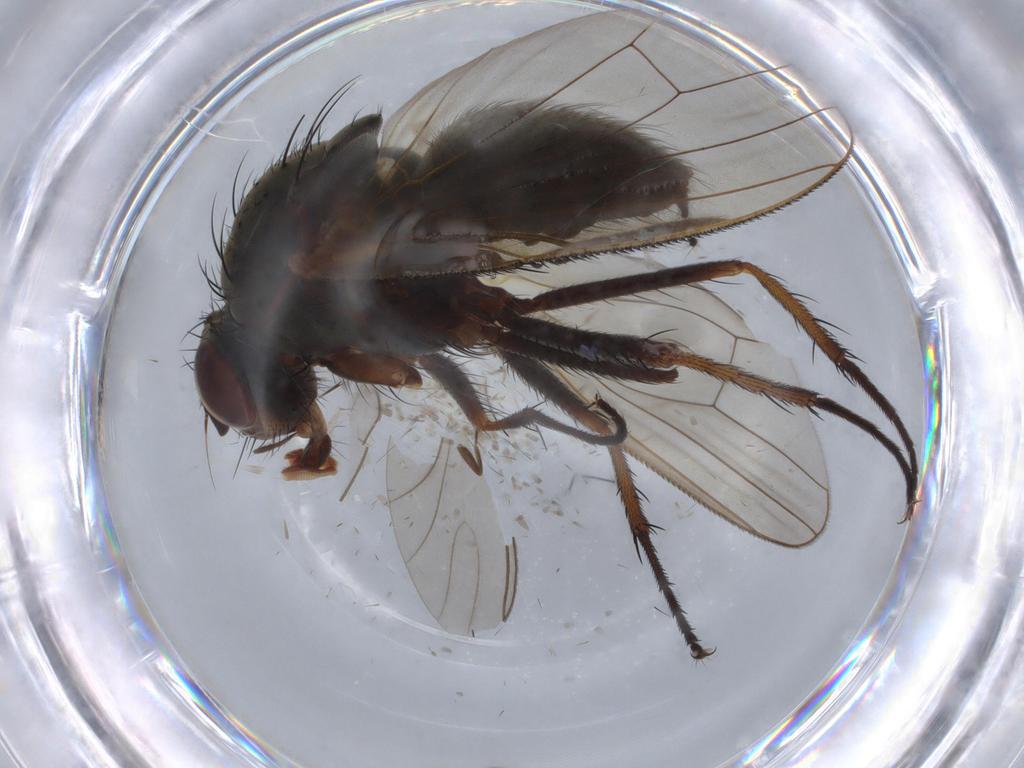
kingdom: Animalia
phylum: Arthropoda
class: Insecta
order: Diptera
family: Anthomyiidae
